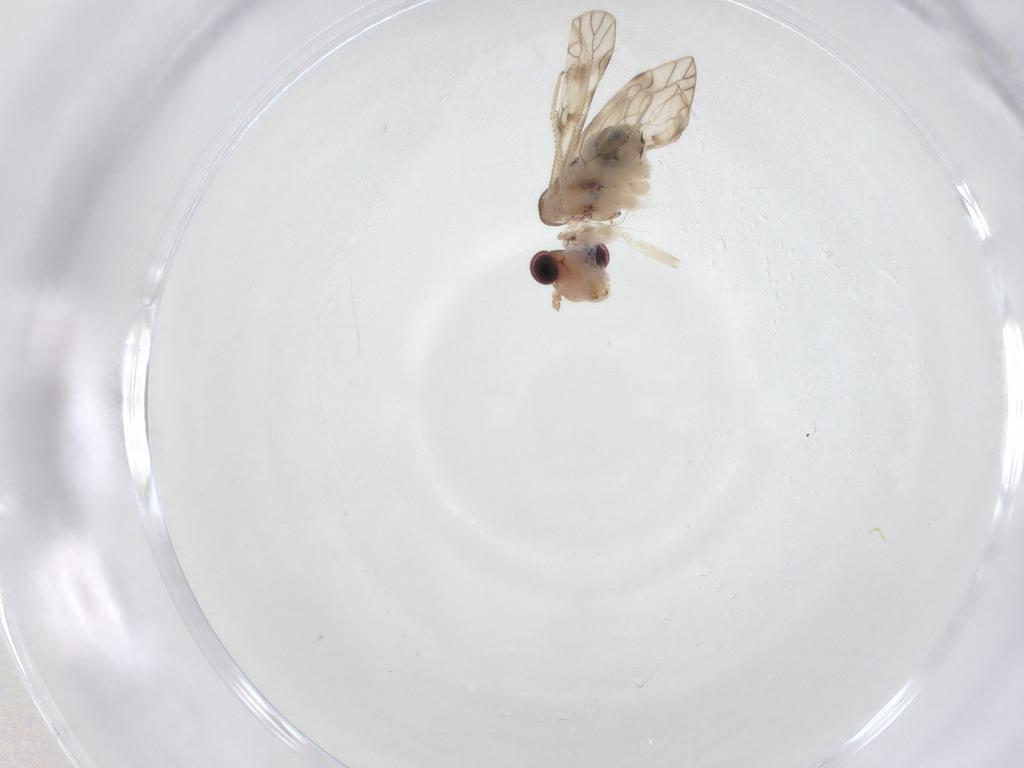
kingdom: Animalia
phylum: Arthropoda
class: Insecta
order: Psocodea
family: Caeciliusidae
